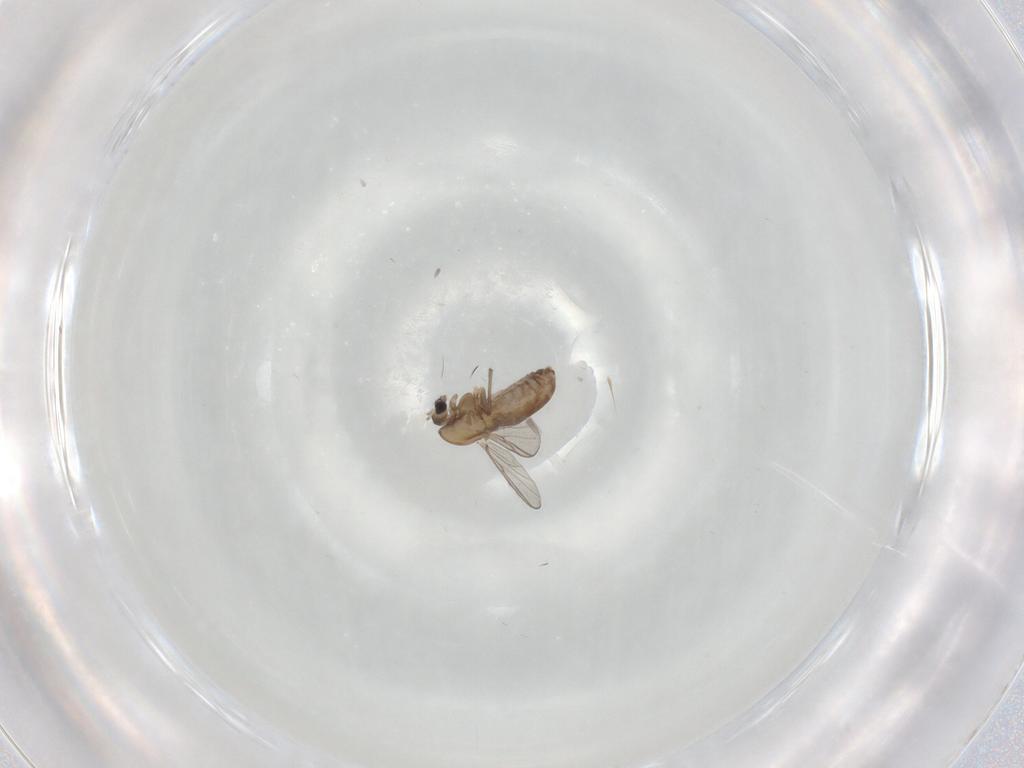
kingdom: Animalia
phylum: Arthropoda
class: Insecta
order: Diptera
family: Chironomidae
